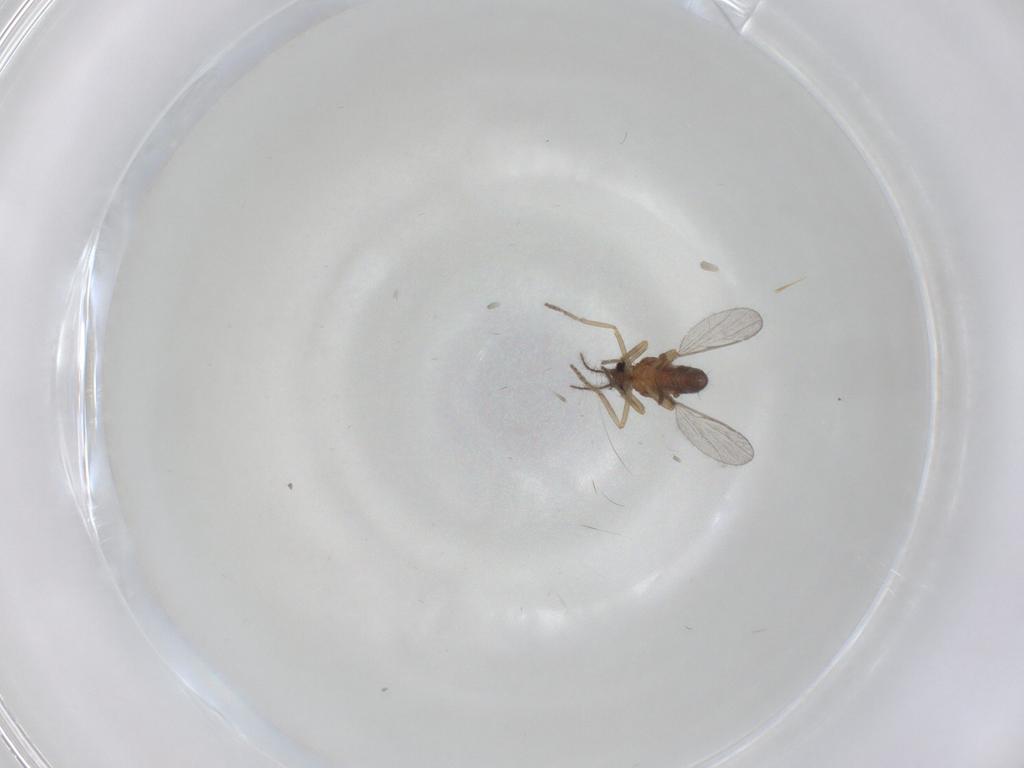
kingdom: Animalia
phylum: Arthropoda
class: Insecta
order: Diptera
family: Ceratopogonidae
